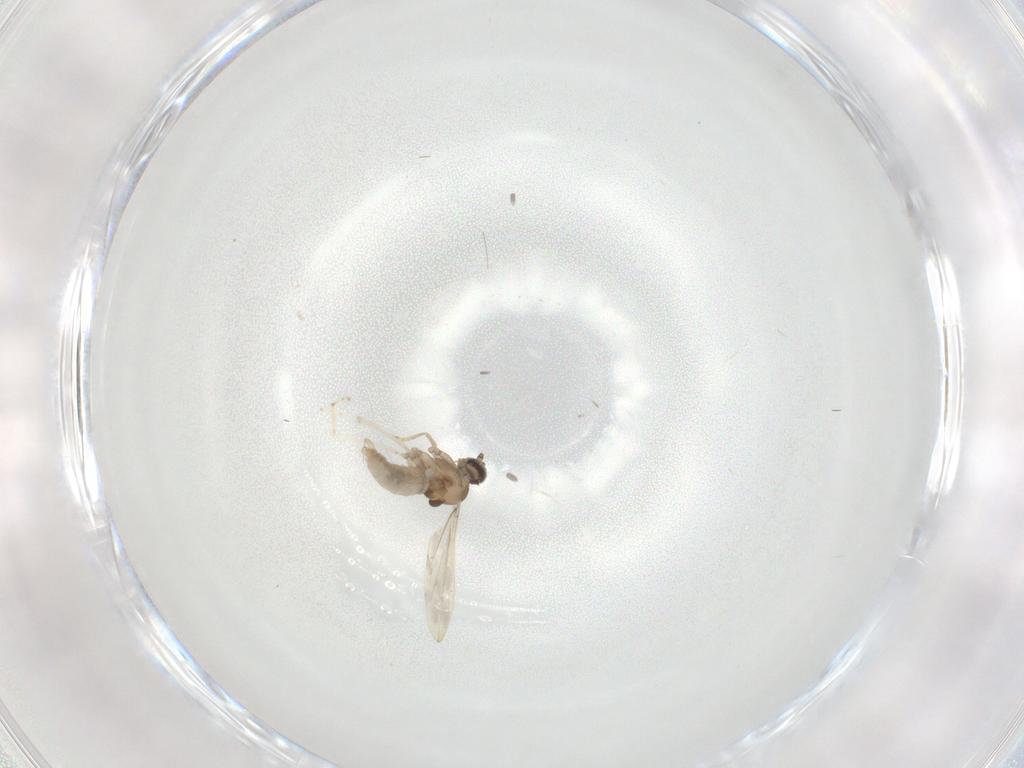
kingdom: Animalia
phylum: Arthropoda
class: Insecta
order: Diptera
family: Cecidomyiidae
